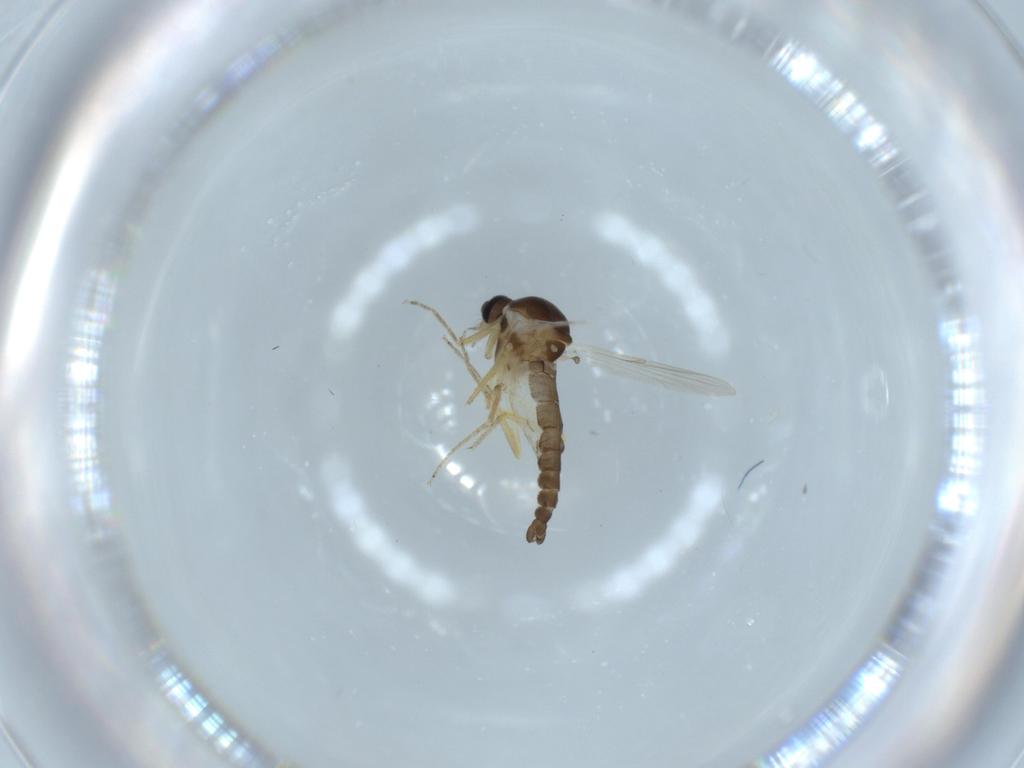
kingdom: Animalia
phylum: Arthropoda
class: Insecta
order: Diptera
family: Ceratopogonidae
